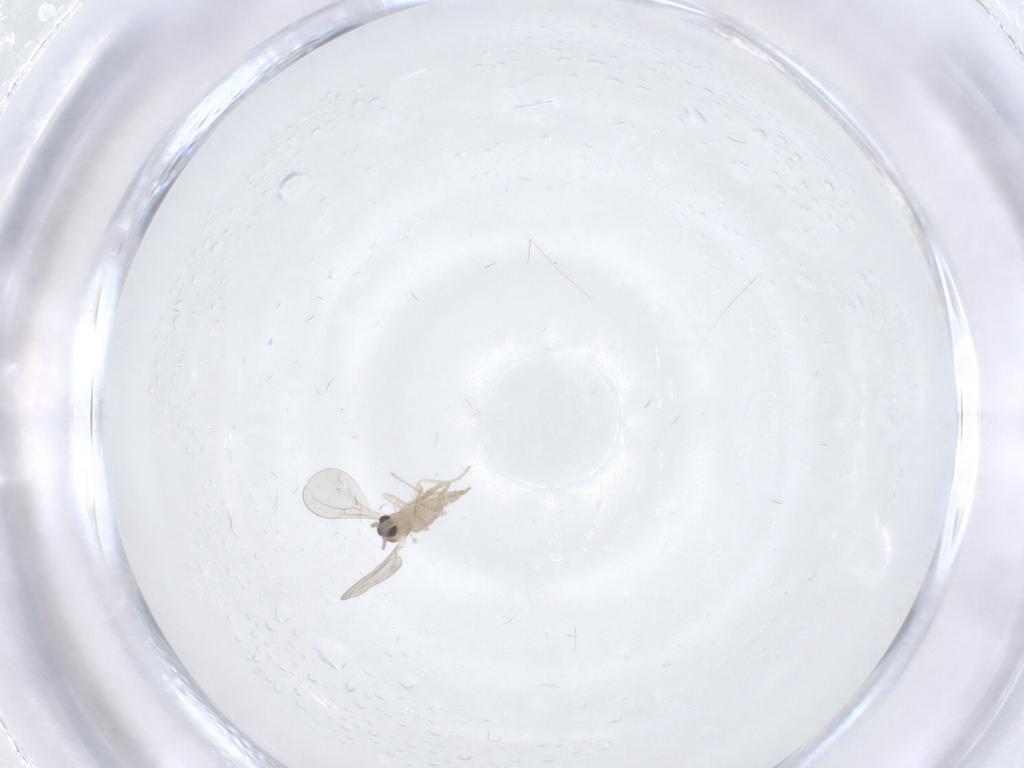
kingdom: Animalia
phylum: Arthropoda
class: Insecta
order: Diptera
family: Cecidomyiidae
